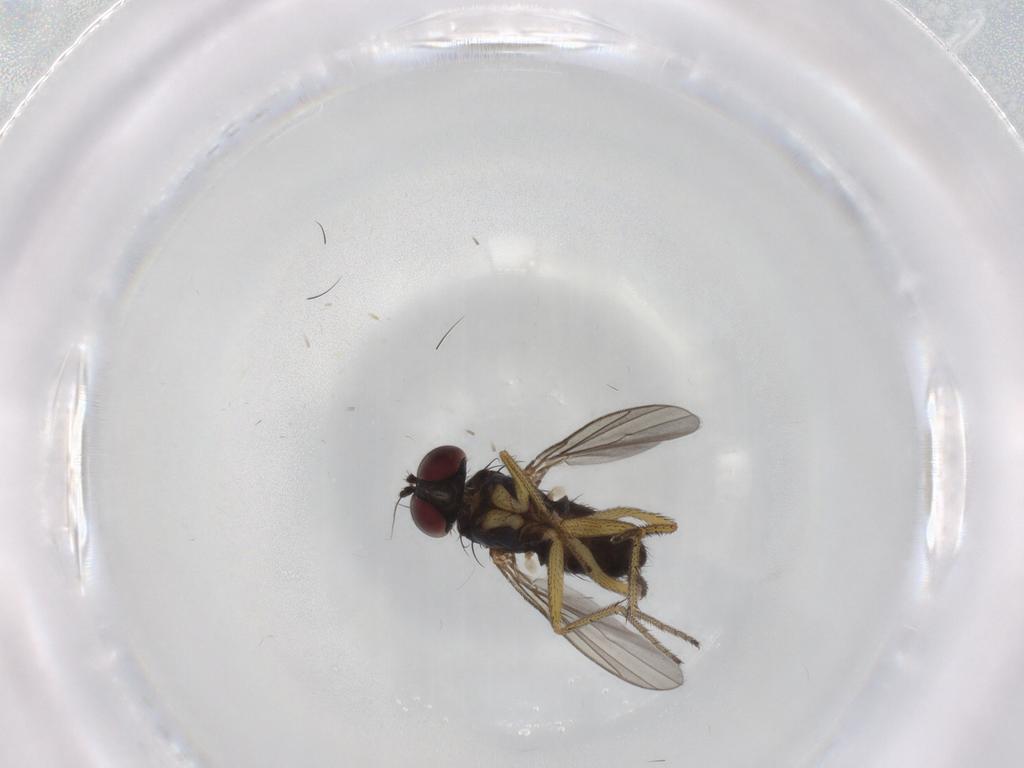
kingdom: Animalia
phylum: Arthropoda
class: Insecta
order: Diptera
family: Dolichopodidae
